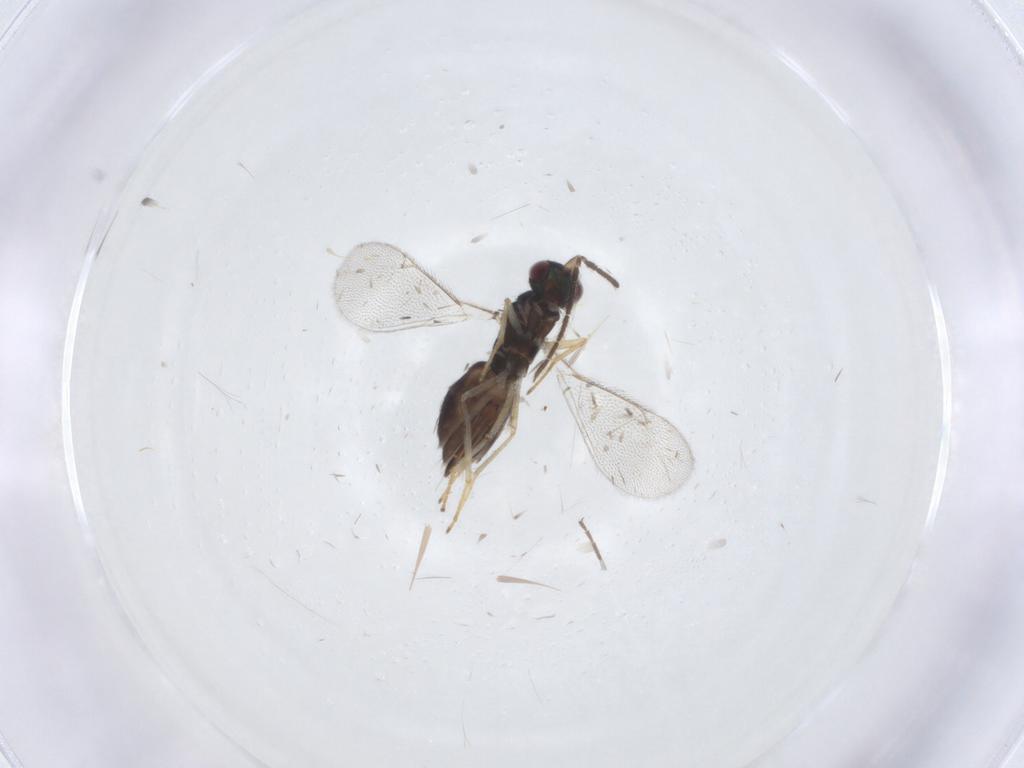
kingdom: Animalia
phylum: Arthropoda
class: Insecta
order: Hymenoptera
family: Eulophidae
